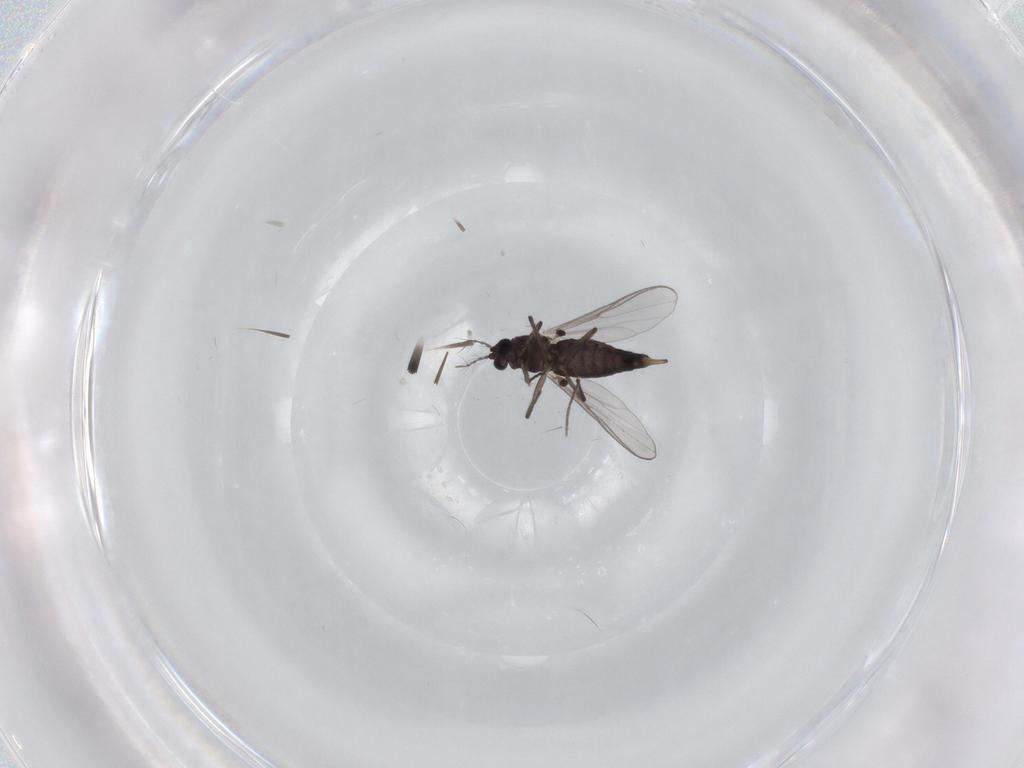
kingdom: Animalia
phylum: Arthropoda
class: Insecta
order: Diptera
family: Chironomidae
